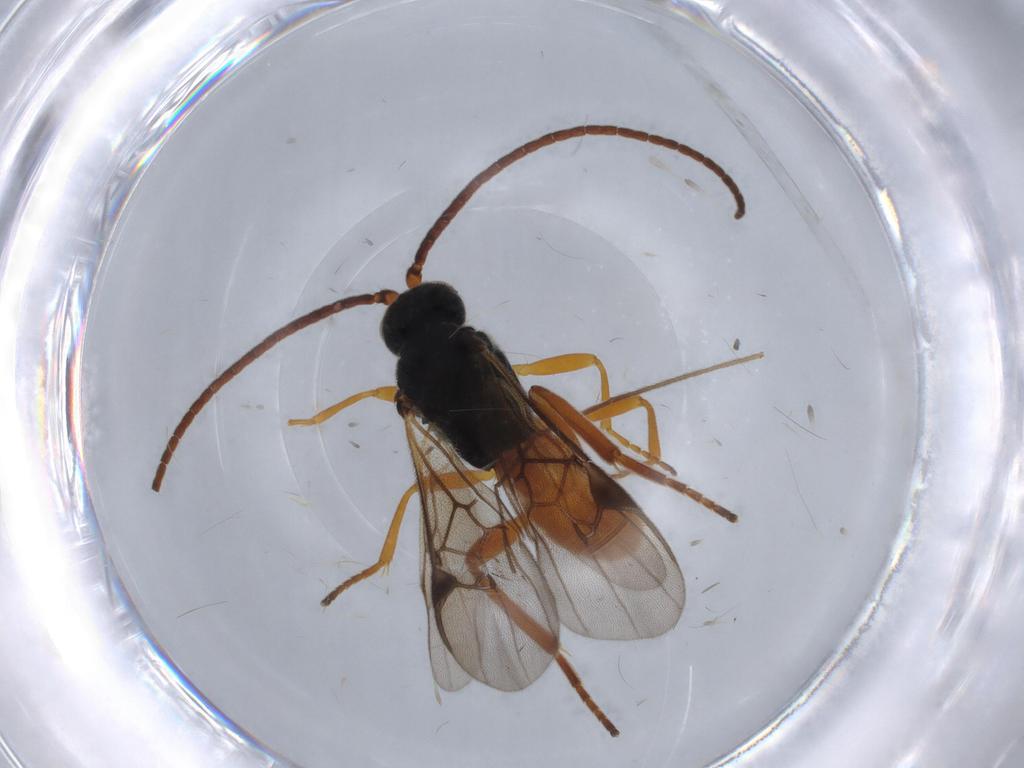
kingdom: Animalia
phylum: Arthropoda
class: Insecta
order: Hymenoptera
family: Braconidae
